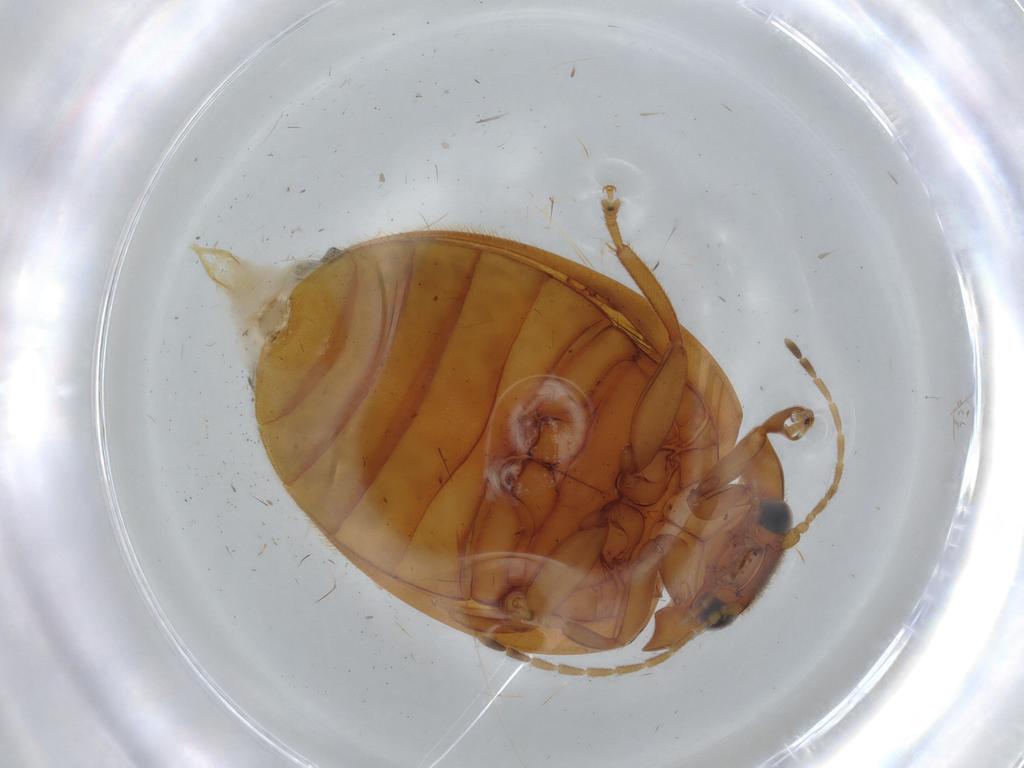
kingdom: Animalia
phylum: Arthropoda
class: Insecta
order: Coleoptera
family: Scirtidae
